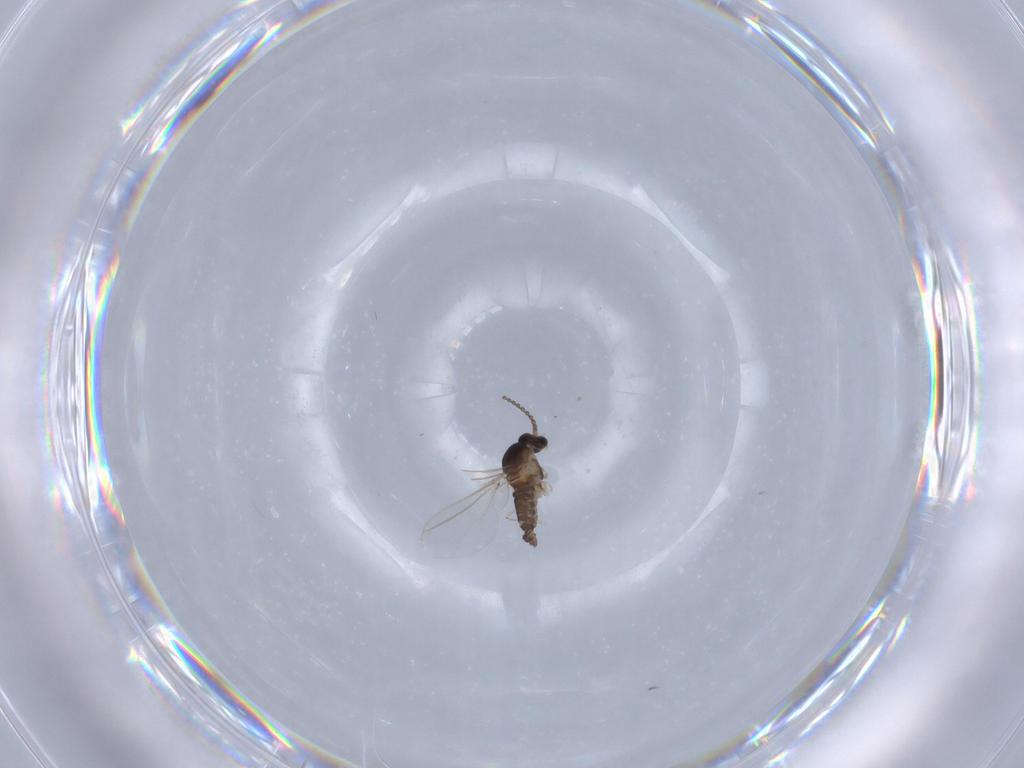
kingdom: Animalia
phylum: Arthropoda
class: Insecta
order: Diptera
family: Cecidomyiidae
